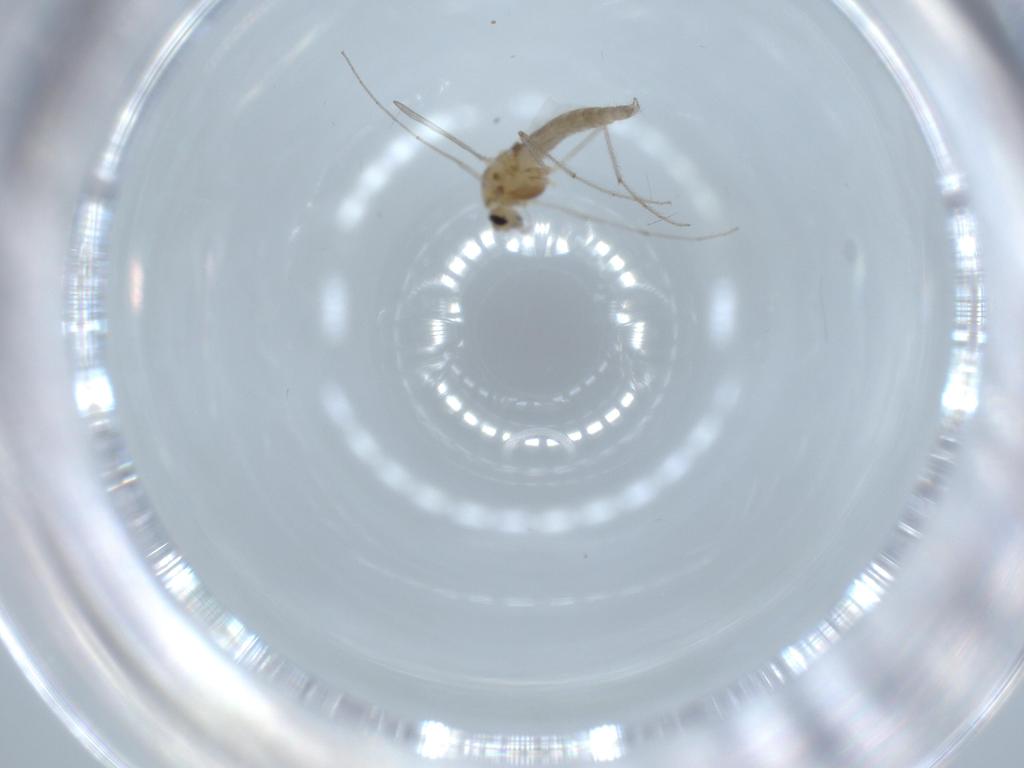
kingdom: Animalia
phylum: Arthropoda
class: Insecta
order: Diptera
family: Chironomidae
